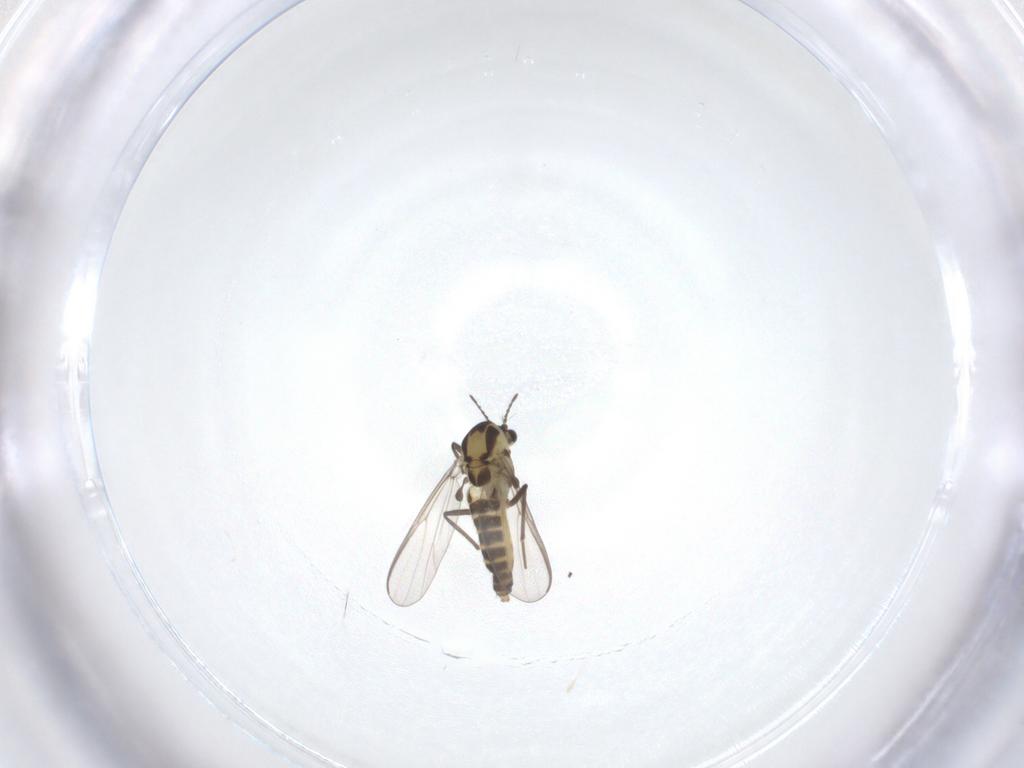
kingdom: Animalia
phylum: Arthropoda
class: Insecta
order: Diptera
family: Chironomidae
